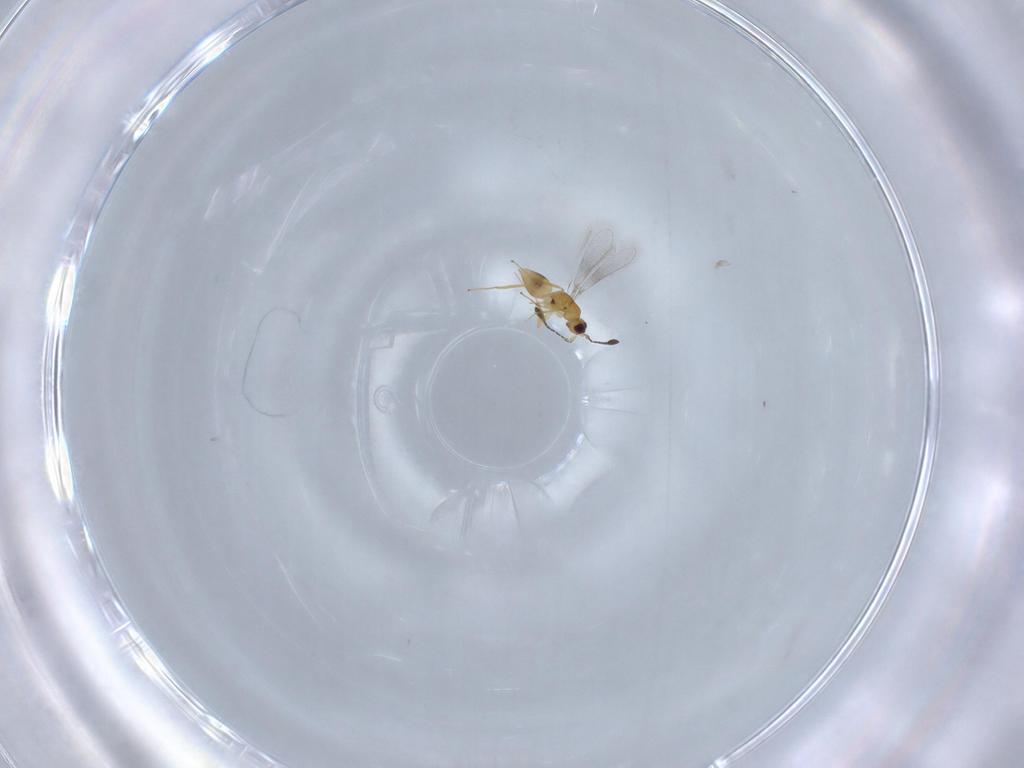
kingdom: Animalia
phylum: Arthropoda
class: Insecta
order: Hymenoptera
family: Mymaridae
